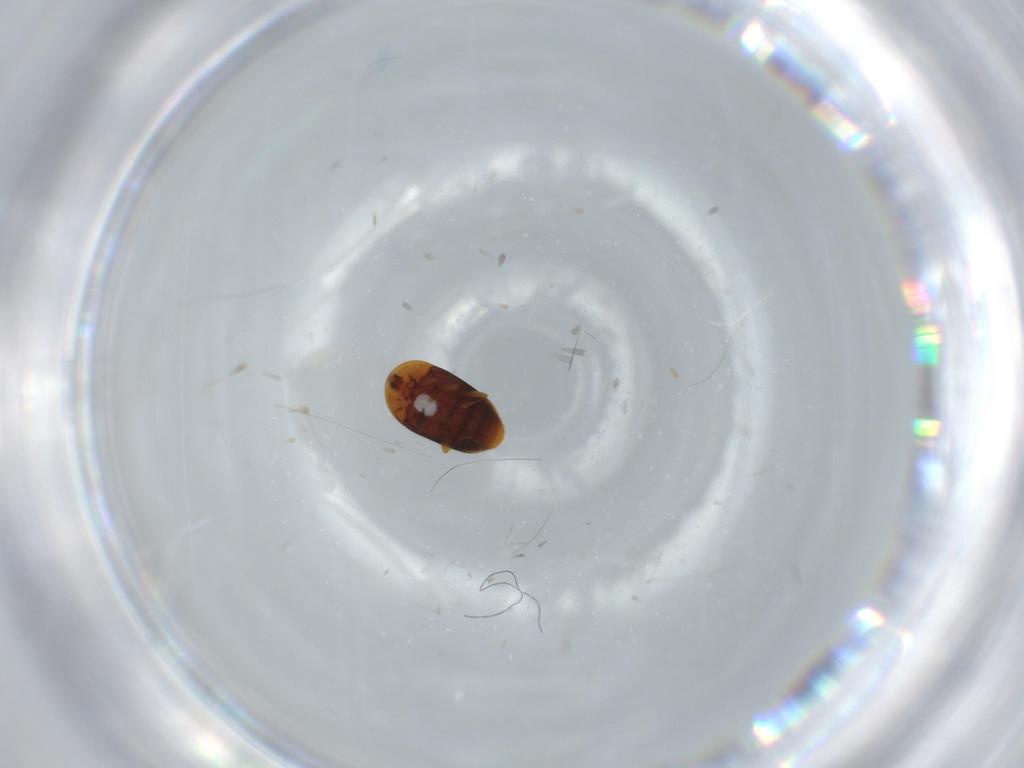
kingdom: Animalia
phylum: Arthropoda
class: Insecta
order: Coleoptera
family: Corylophidae
